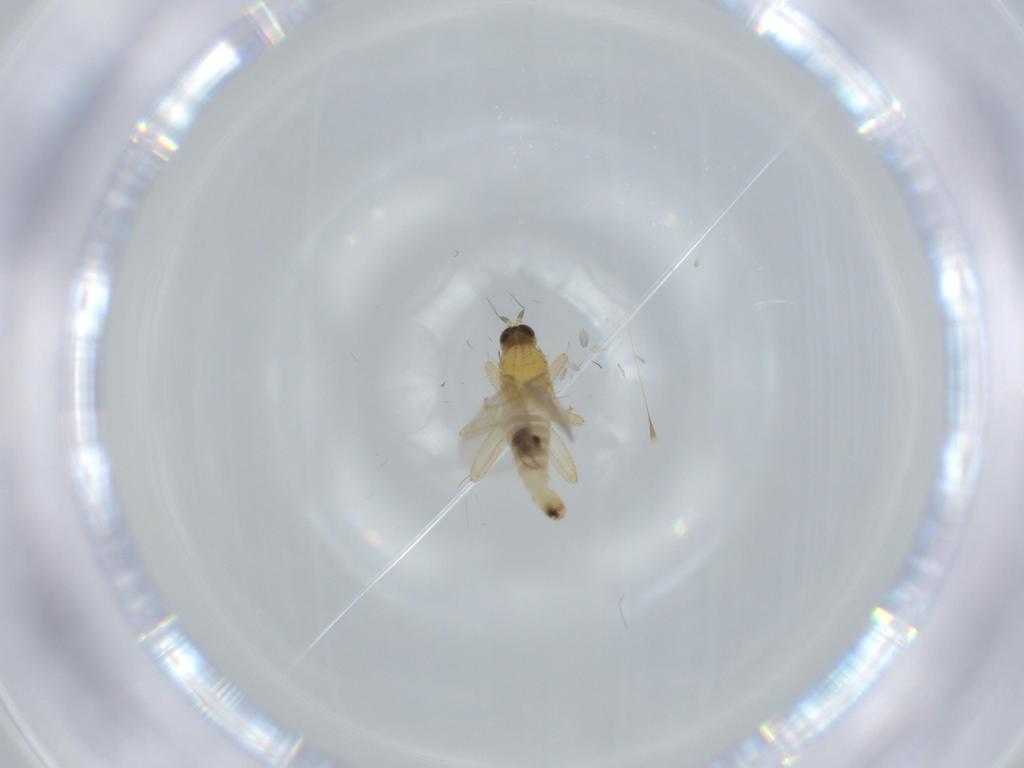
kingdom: Animalia
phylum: Arthropoda
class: Insecta
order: Diptera
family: Hybotidae
